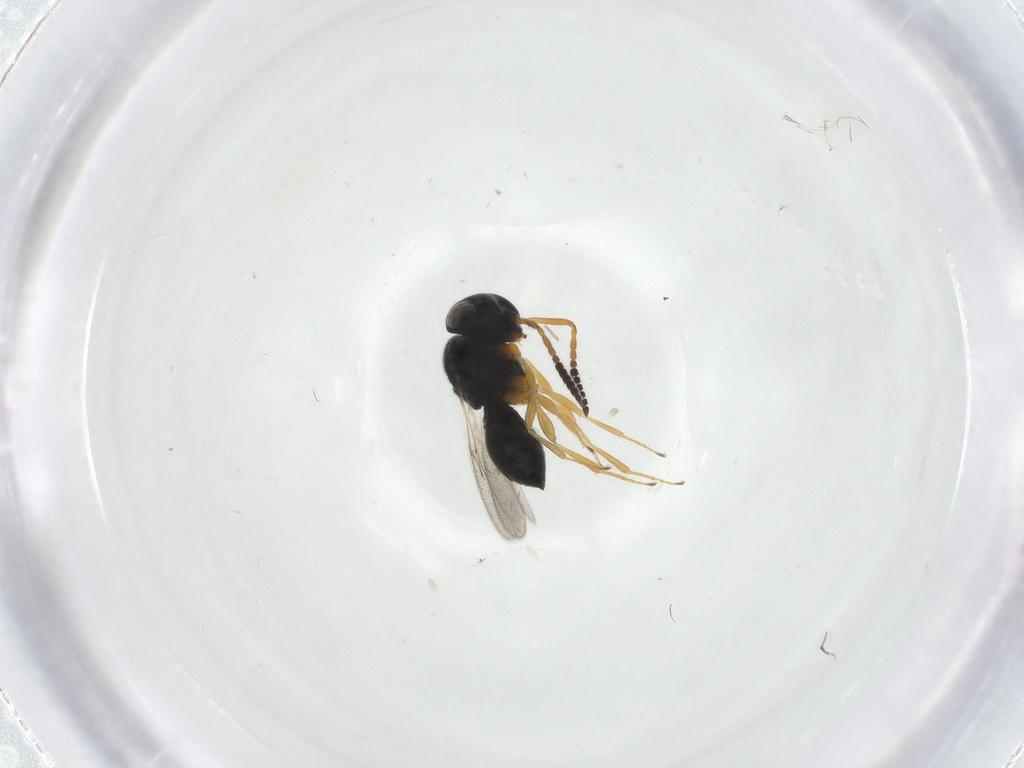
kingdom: Animalia
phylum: Arthropoda
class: Insecta
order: Hymenoptera
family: Scelionidae
